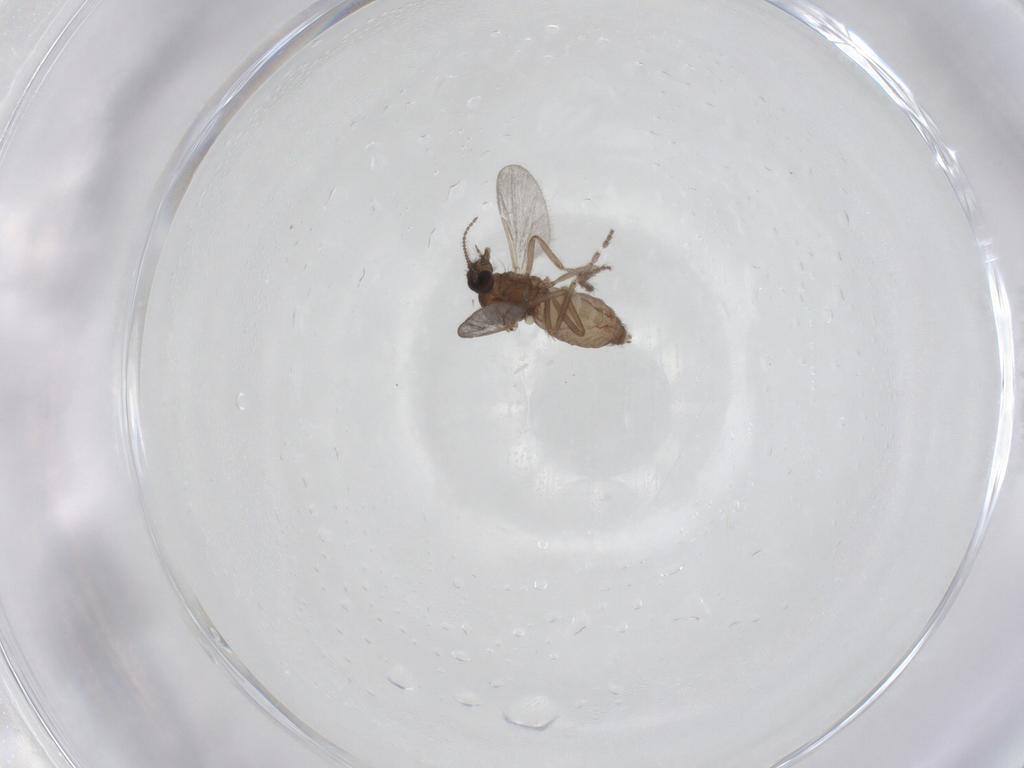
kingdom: Animalia
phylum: Arthropoda
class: Insecta
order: Diptera
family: Ceratopogonidae
